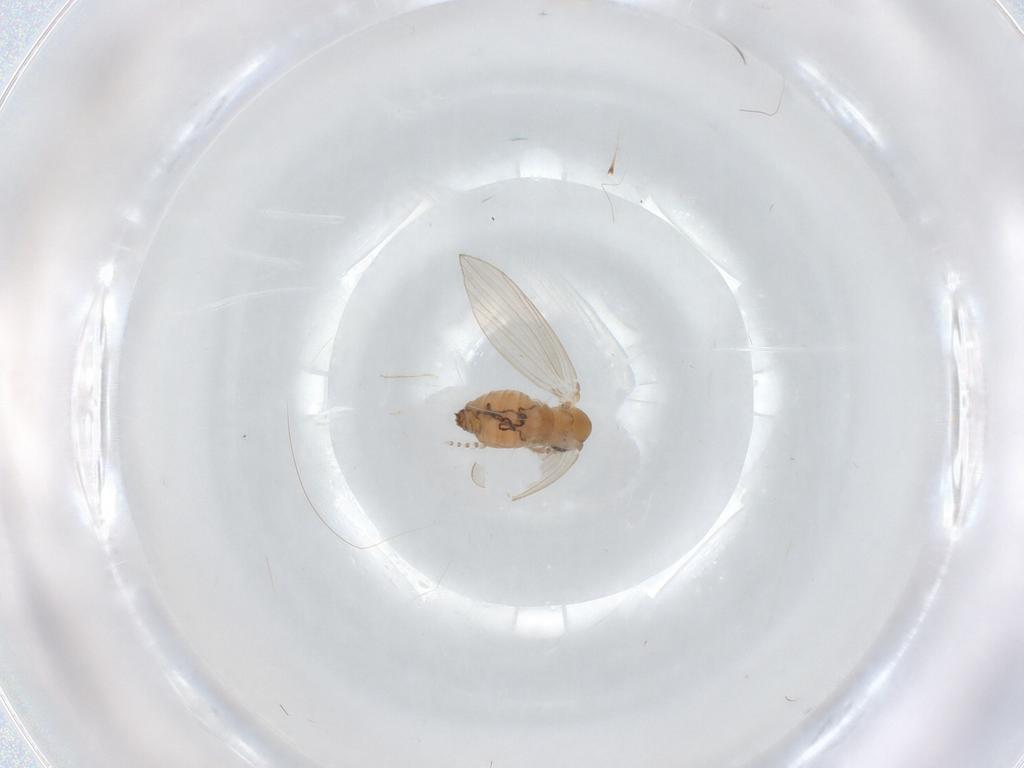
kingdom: Animalia
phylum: Arthropoda
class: Insecta
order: Diptera
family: Psychodidae
